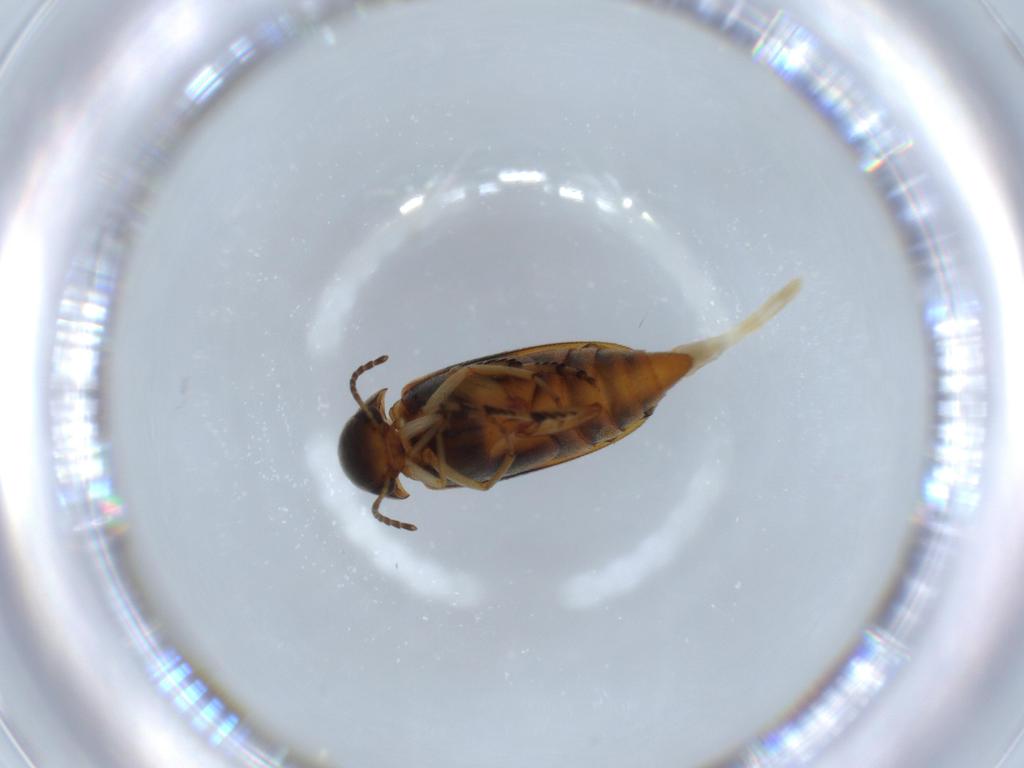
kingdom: Animalia
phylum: Arthropoda
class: Insecta
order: Coleoptera
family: Mordellidae
